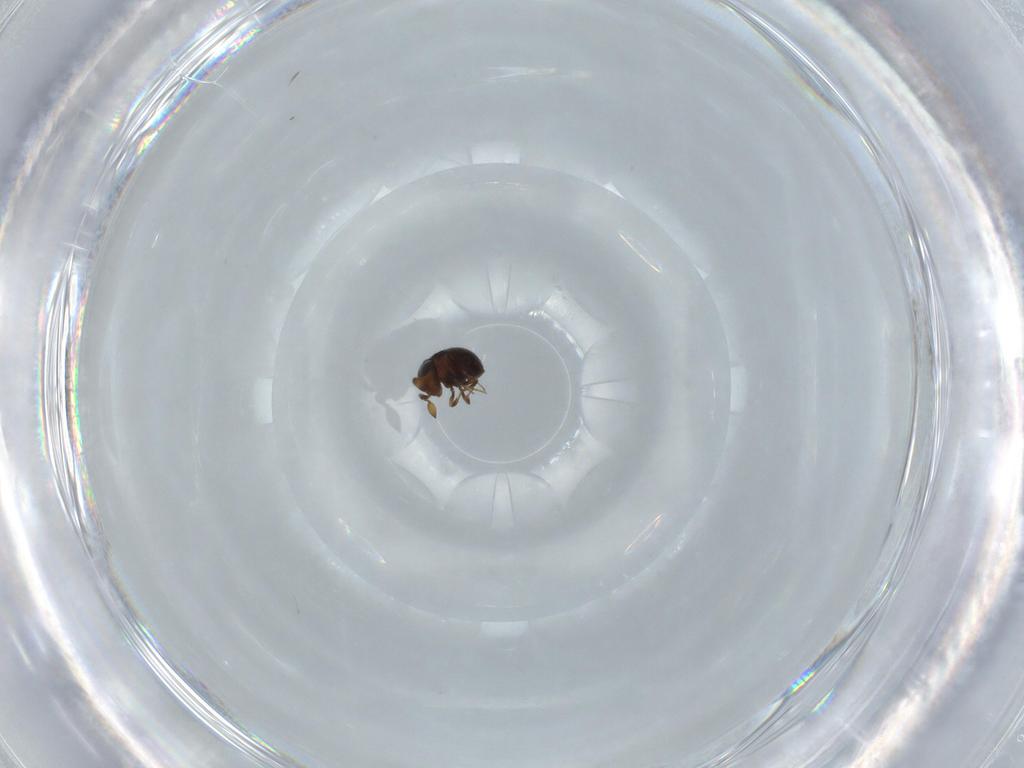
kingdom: Animalia
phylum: Arthropoda
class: Insecta
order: Hymenoptera
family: Scelionidae
